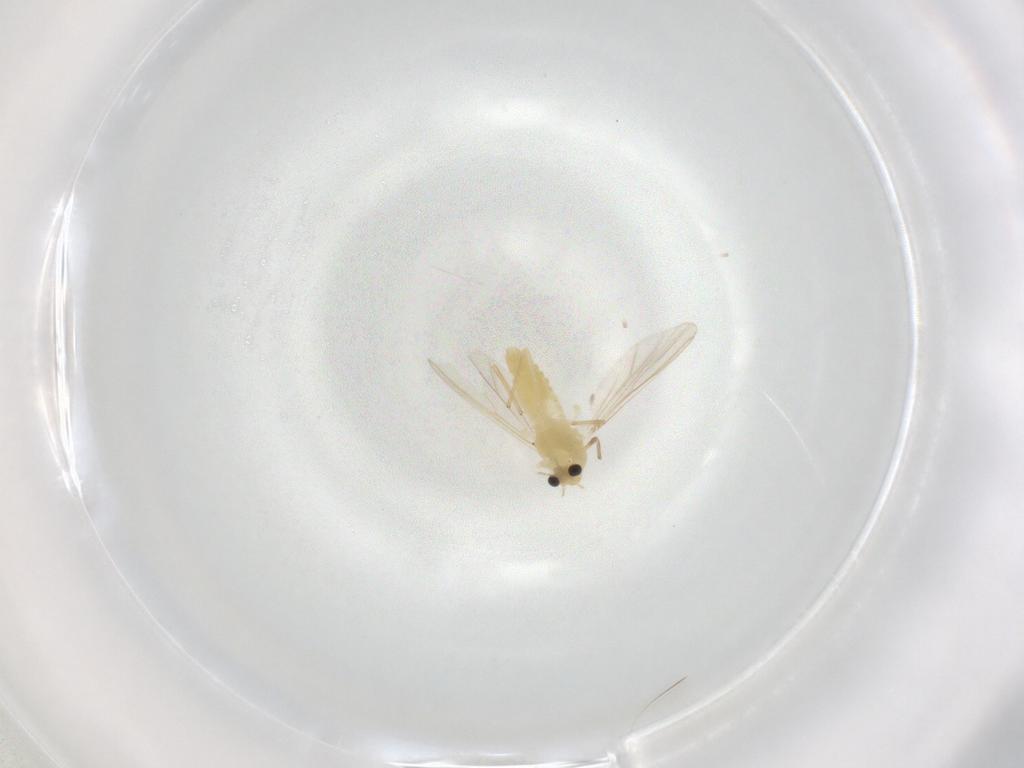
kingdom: Animalia
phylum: Arthropoda
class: Insecta
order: Diptera
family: Chironomidae
